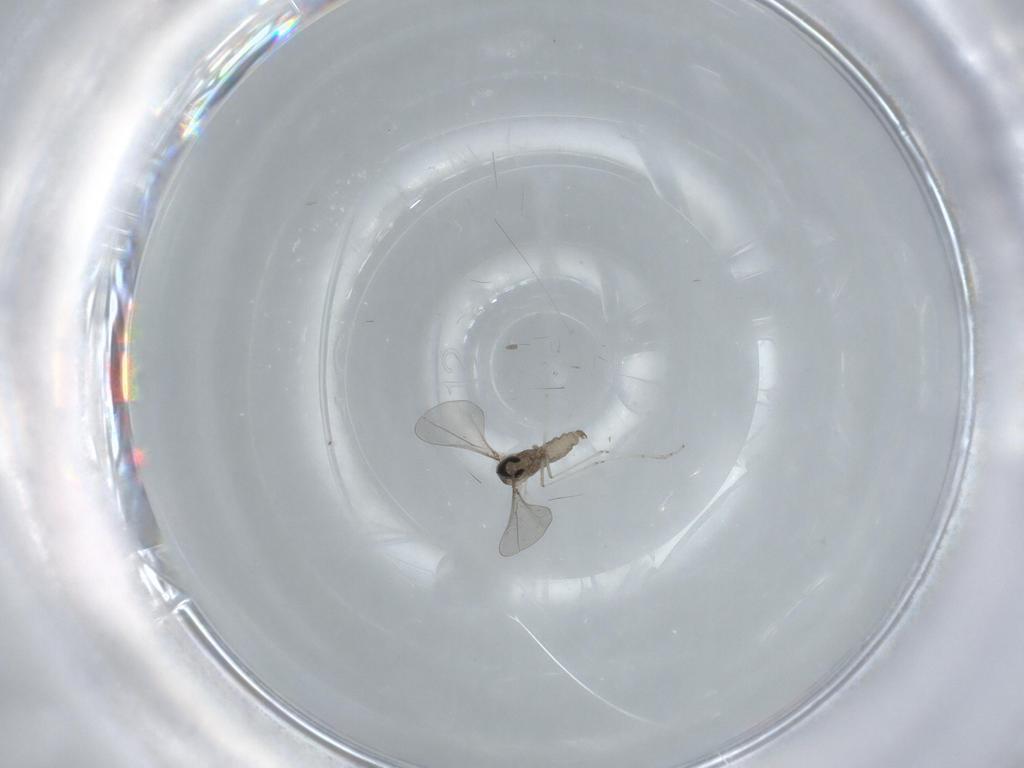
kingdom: Animalia
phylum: Arthropoda
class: Insecta
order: Diptera
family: Cecidomyiidae
